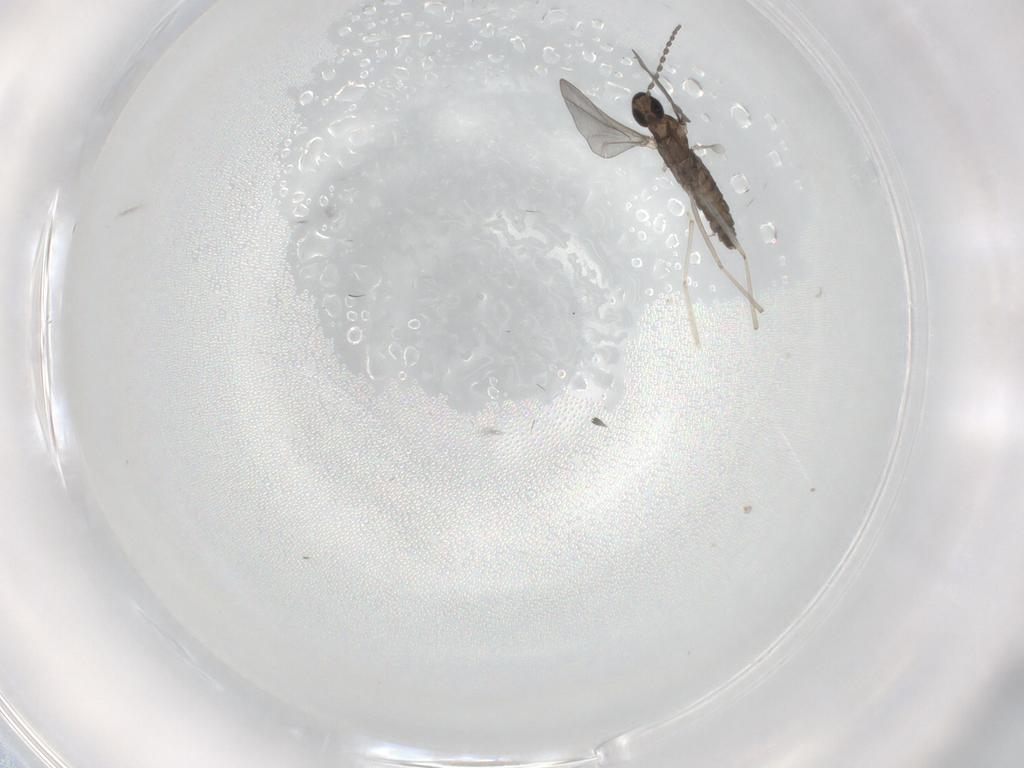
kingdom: Animalia
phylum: Arthropoda
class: Insecta
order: Diptera
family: Cecidomyiidae
